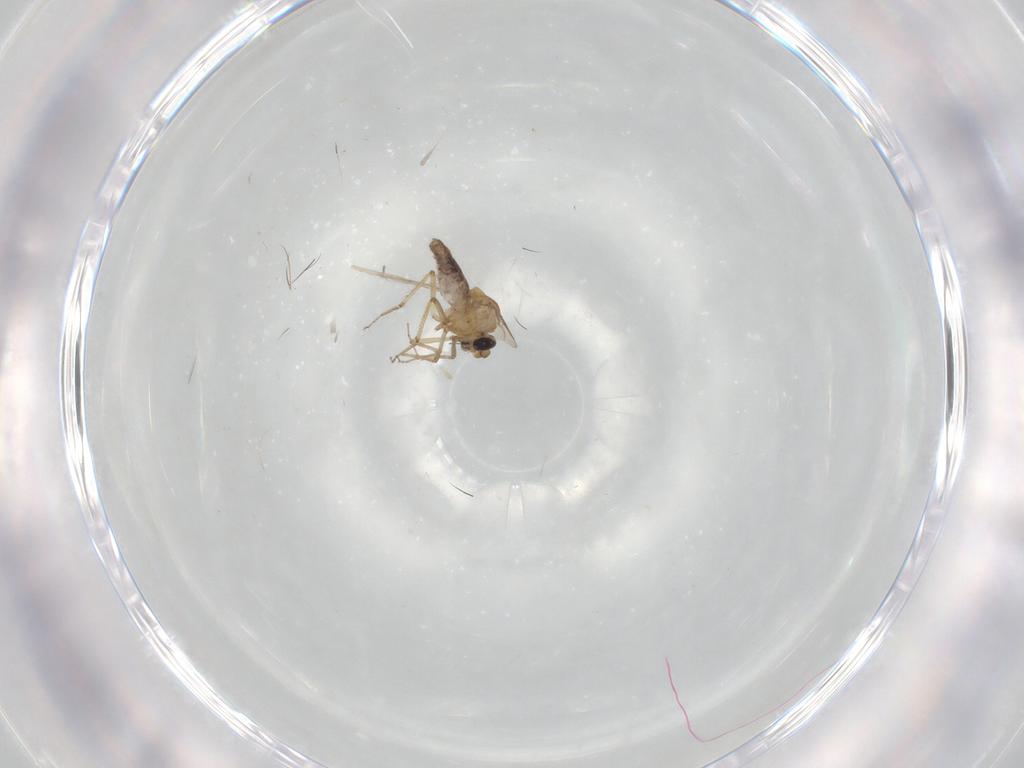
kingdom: Animalia
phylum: Arthropoda
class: Insecta
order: Diptera
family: Ceratopogonidae
